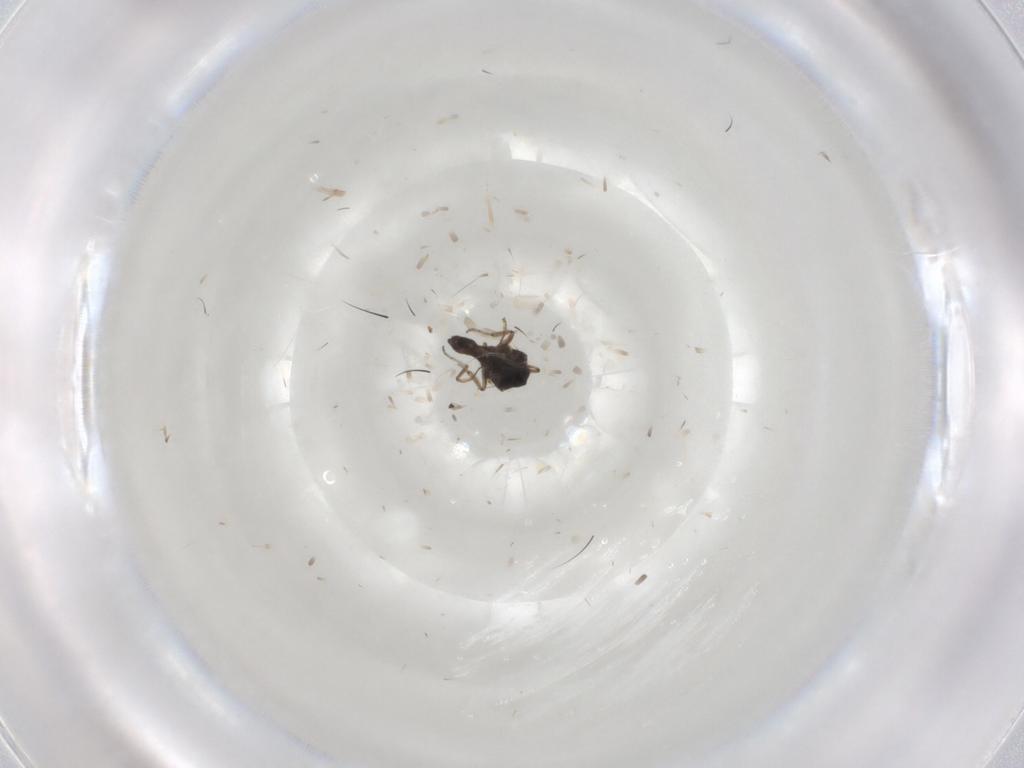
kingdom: Animalia
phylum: Arthropoda
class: Insecta
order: Diptera
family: Ceratopogonidae
